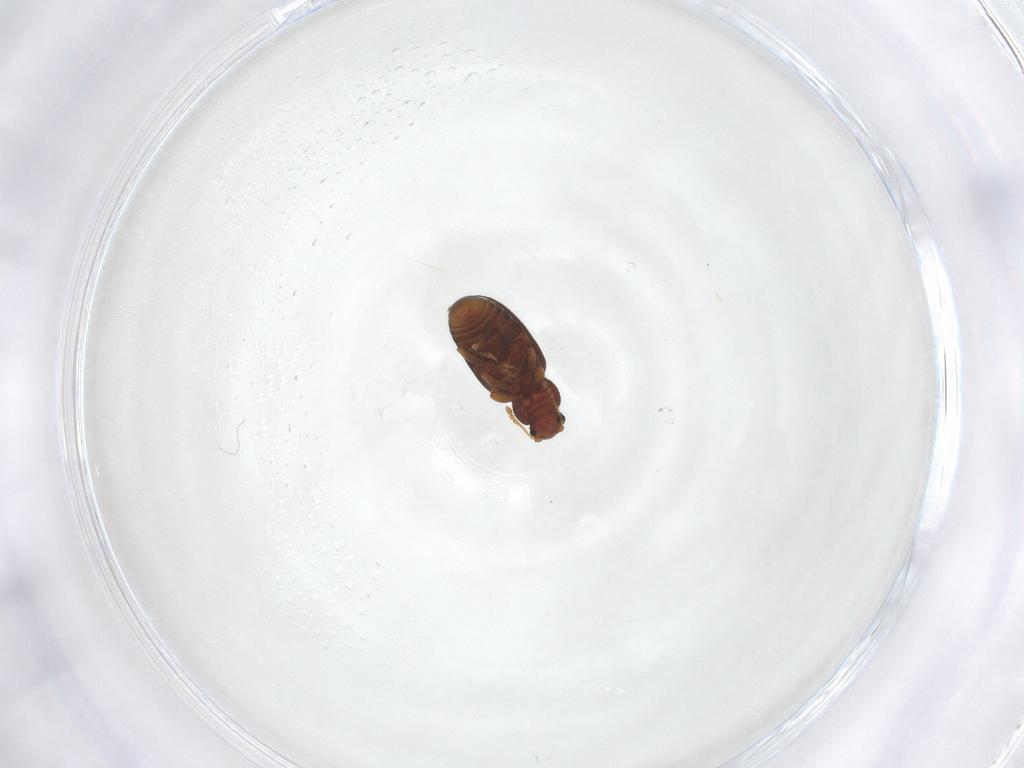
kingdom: Animalia
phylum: Arthropoda
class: Insecta
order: Coleoptera
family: Latridiidae
